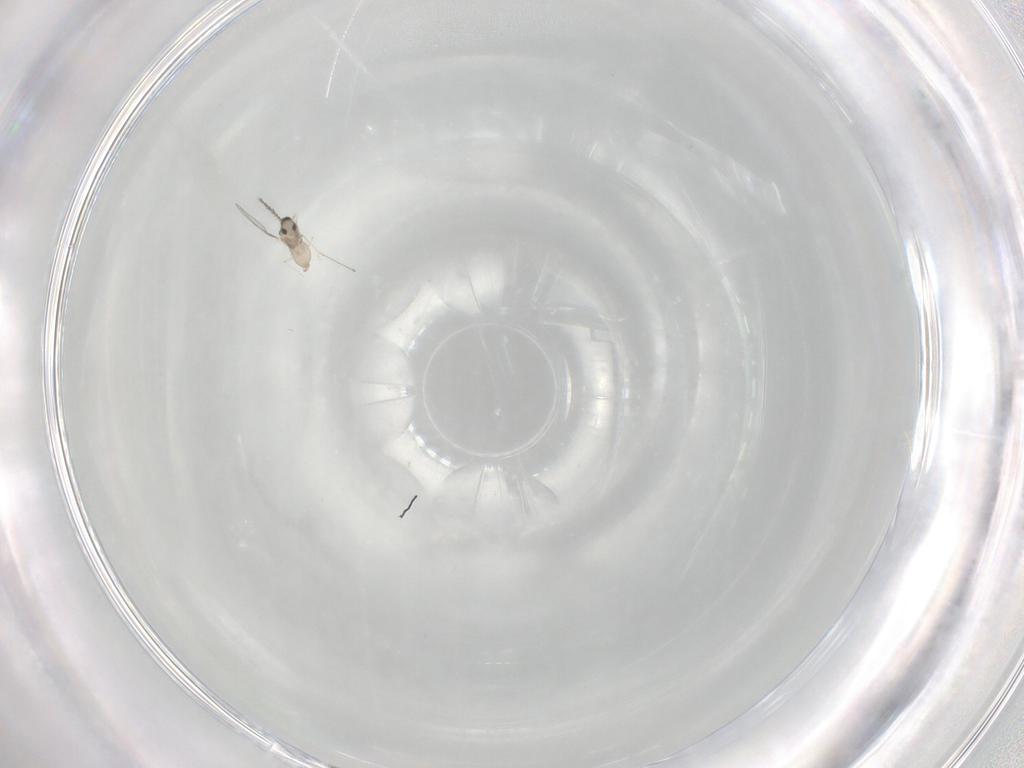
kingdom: Animalia
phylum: Arthropoda
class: Insecta
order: Diptera
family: Cecidomyiidae
